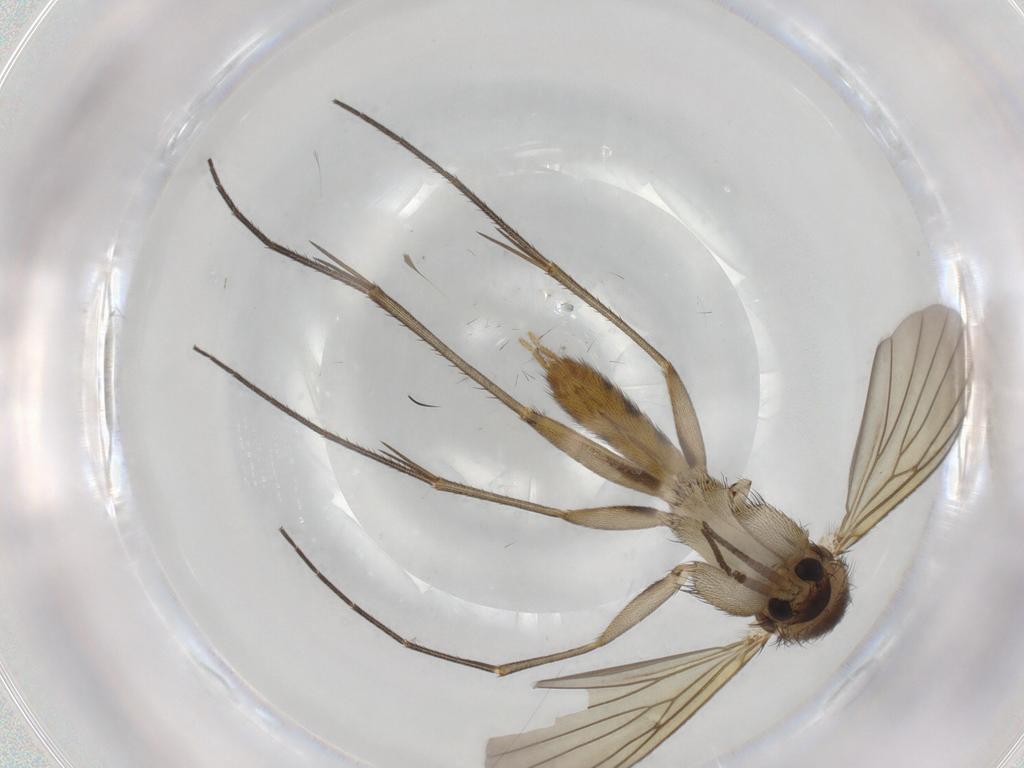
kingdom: Animalia
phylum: Arthropoda
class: Insecta
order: Diptera
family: Mycetophilidae
